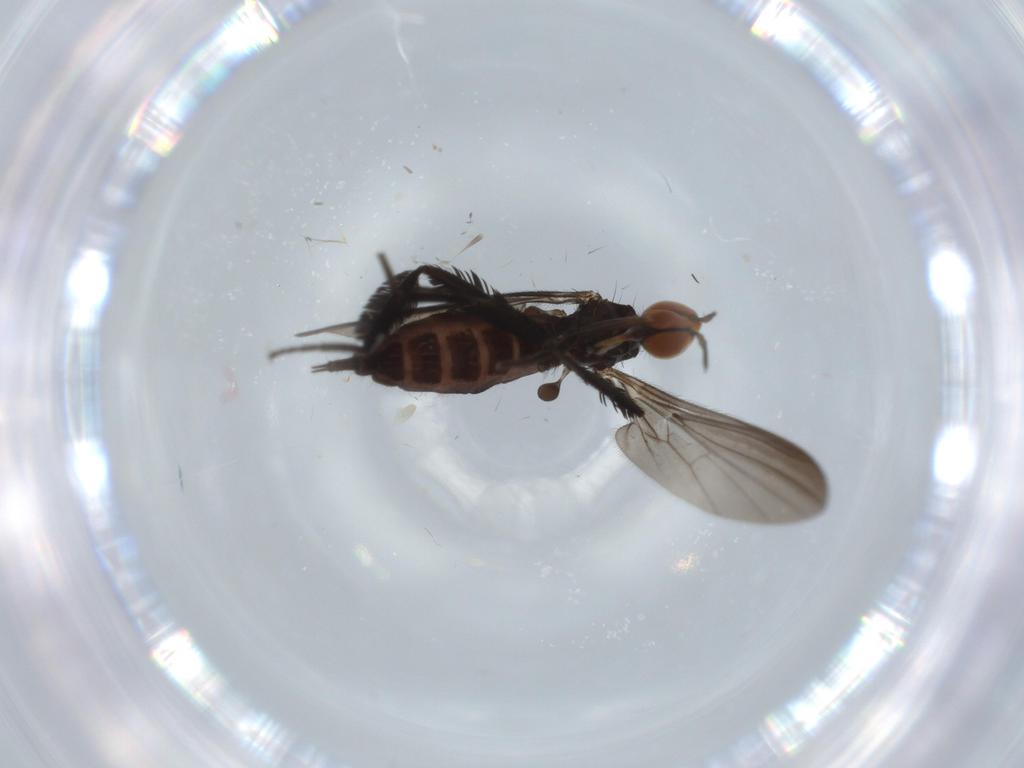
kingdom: Animalia
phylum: Arthropoda
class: Insecta
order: Diptera
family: Empididae
